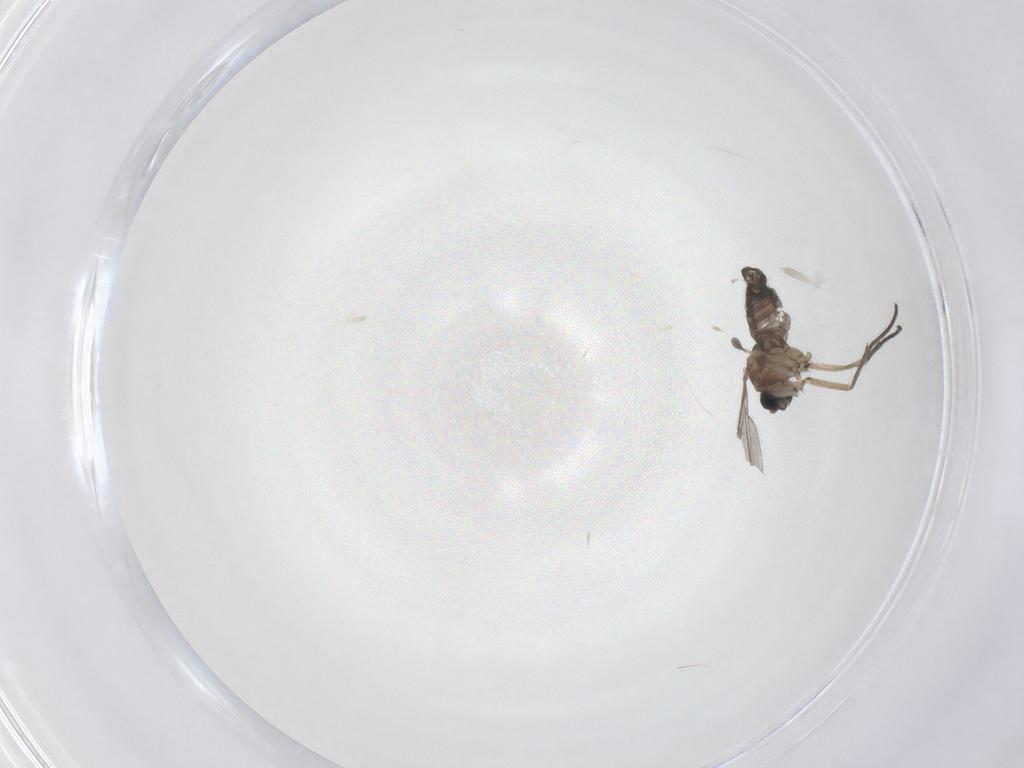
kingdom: Animalia
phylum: Arthropoda
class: Insecta
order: Diptera
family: Sciaridae
